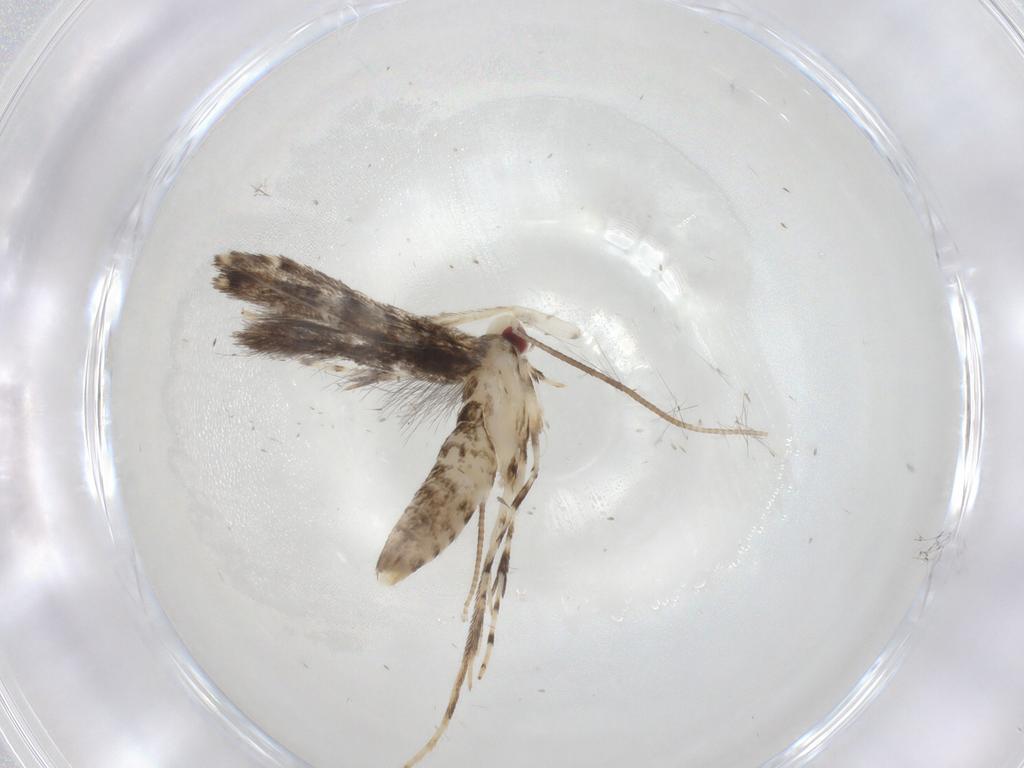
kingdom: Animalia
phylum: Arthropoda
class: Insecta
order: Lepidoptera
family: Gracillariidae
